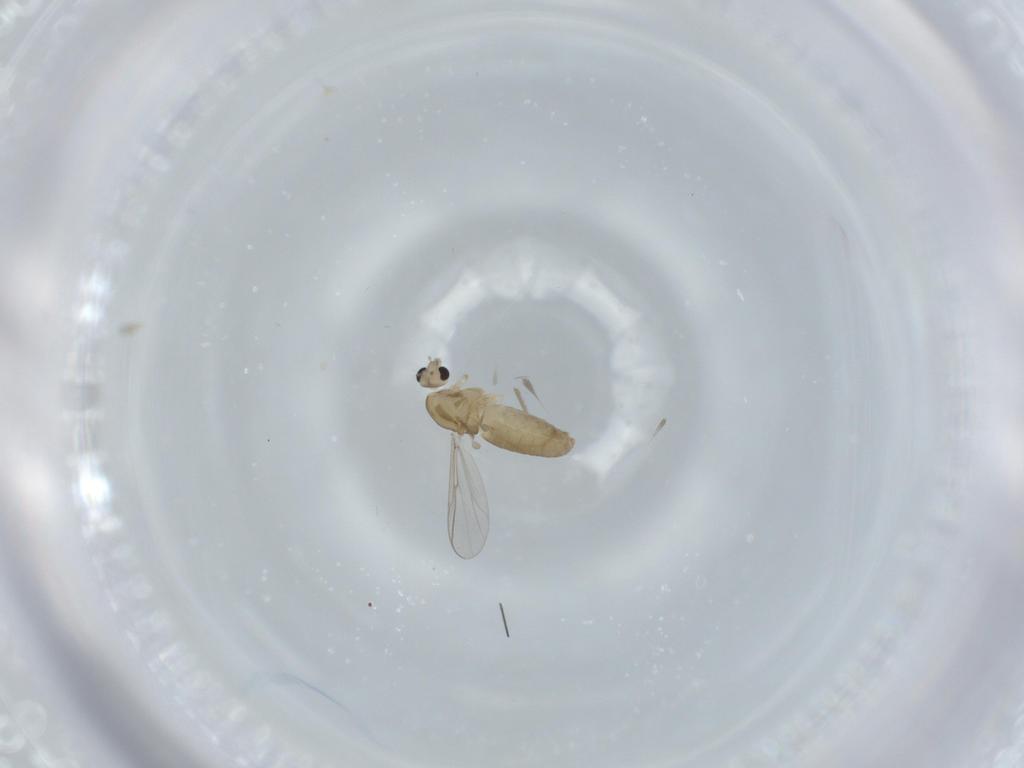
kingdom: Animalia
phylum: Arthropoda
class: Insecta
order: Diptera
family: Chironomidae
